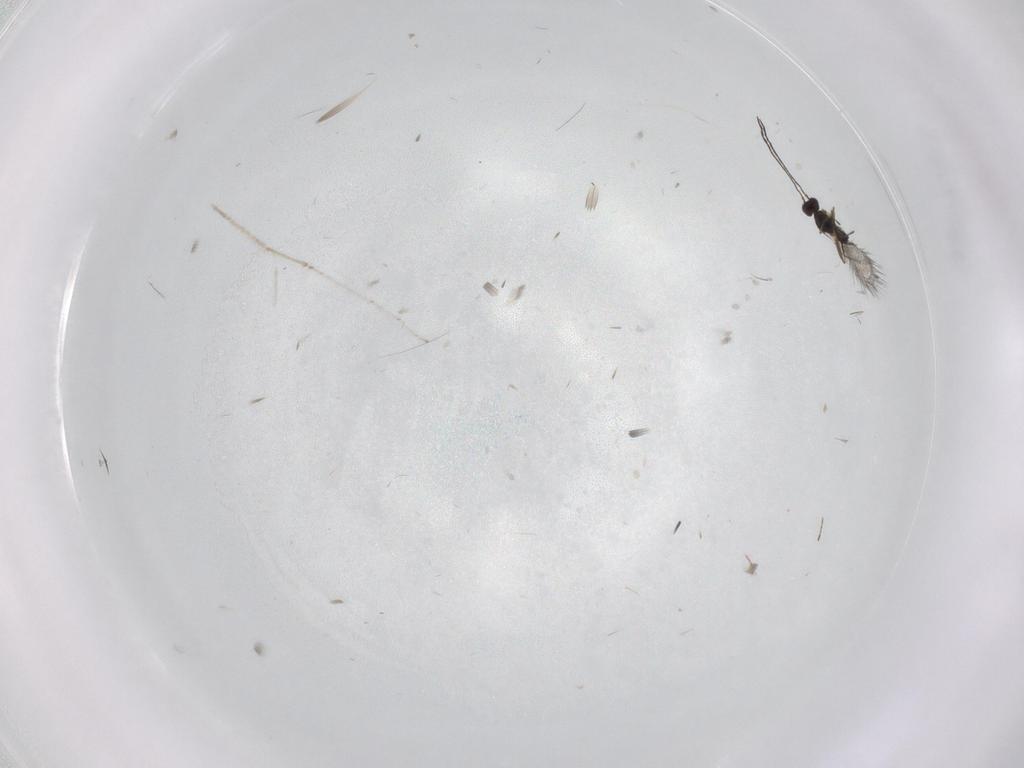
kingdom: Animalia
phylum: Arthropoda
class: Insecta
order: Hymenoptera
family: Mymaridae
